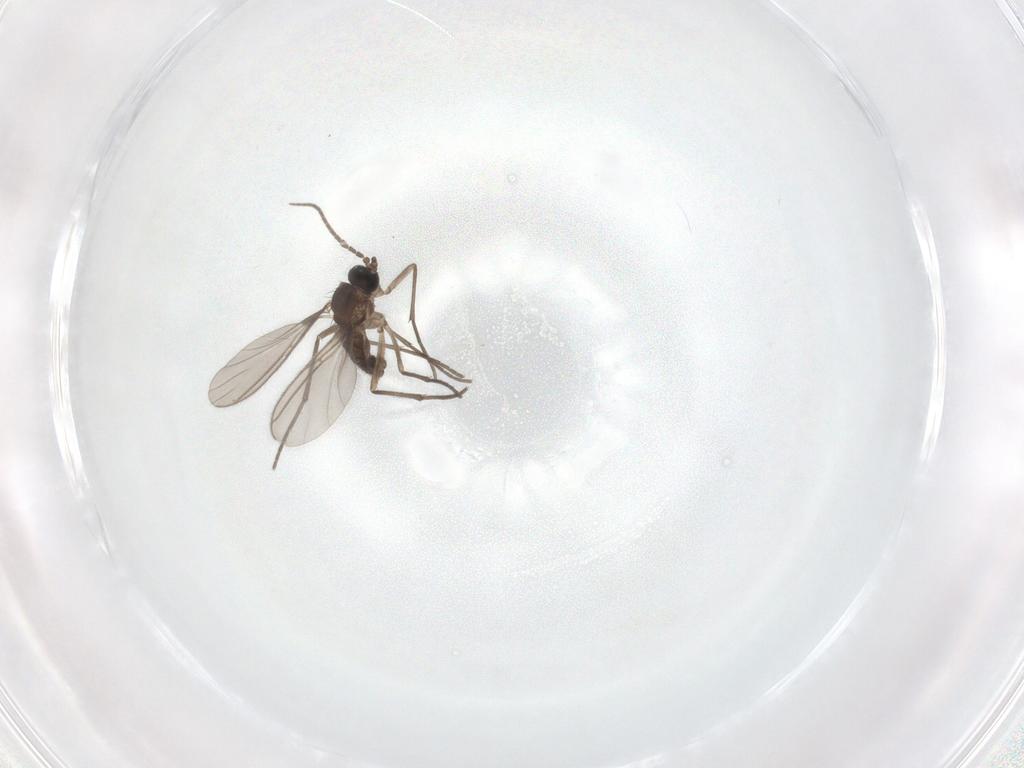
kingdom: Animalia
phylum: Arthropoda
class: Insecta
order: Diptera
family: Sciaridae
